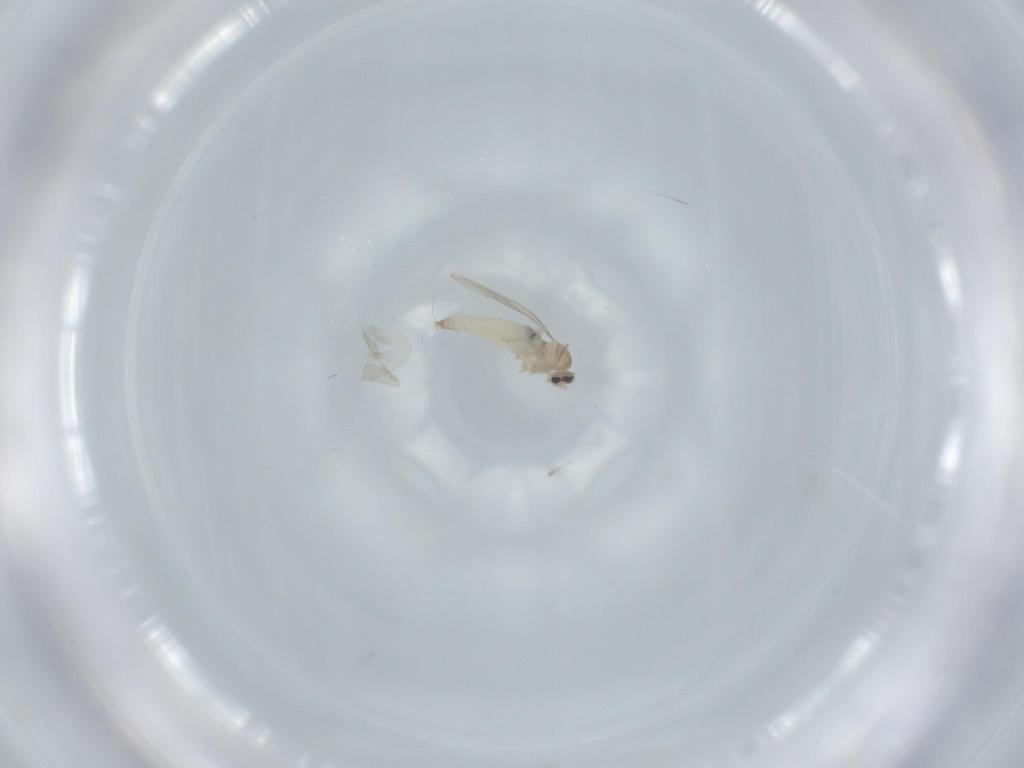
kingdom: Animalia
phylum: Arthropoda
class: Insecta
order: Diptera
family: Cecidomyiidae
